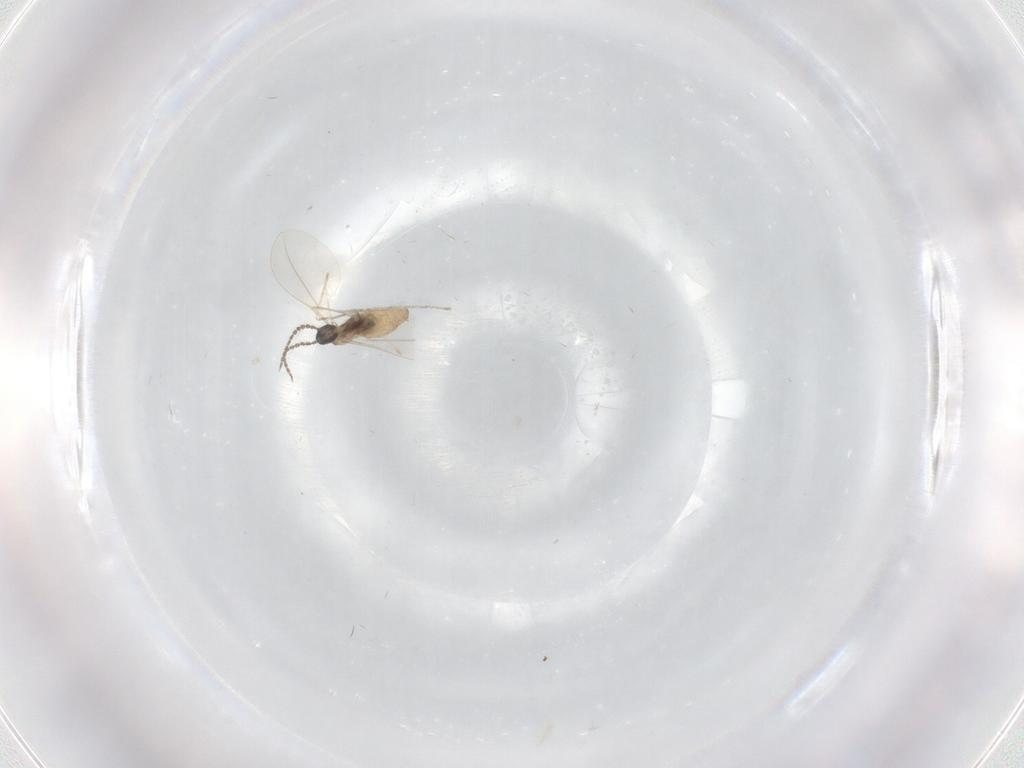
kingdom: Animalia
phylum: Arthropoda
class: Insecta
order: Diptera
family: Cecidomyiidae
